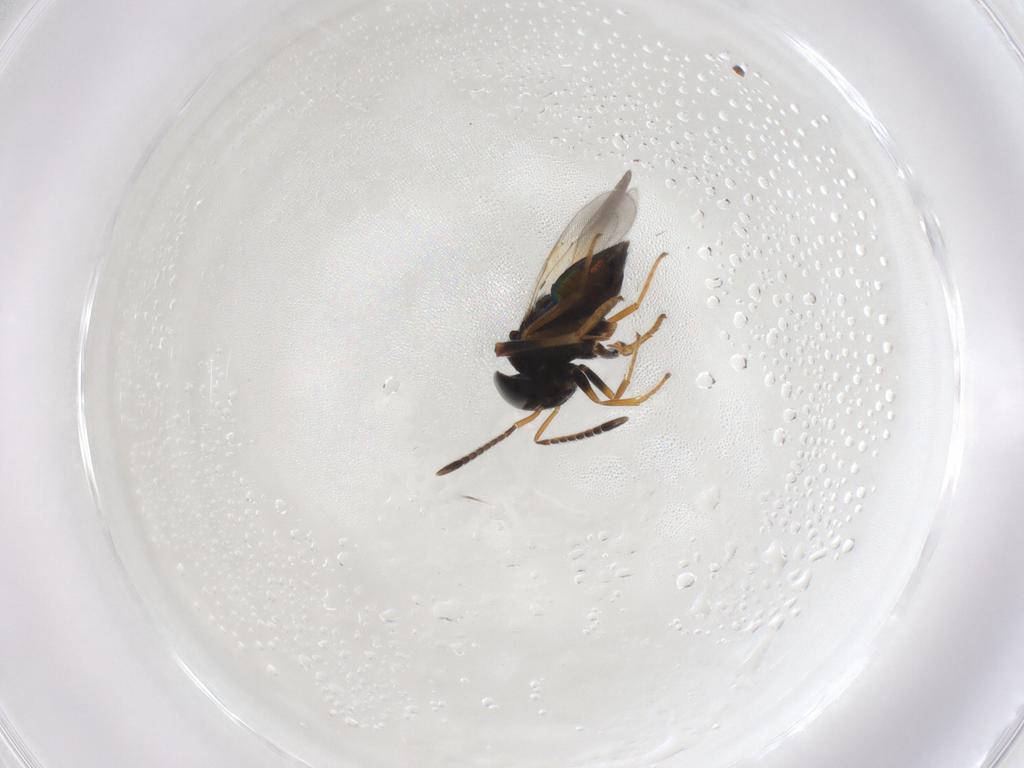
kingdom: Animalia
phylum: Arthropoda
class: Insecta
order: Hymenoptera
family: Encyrtidae
